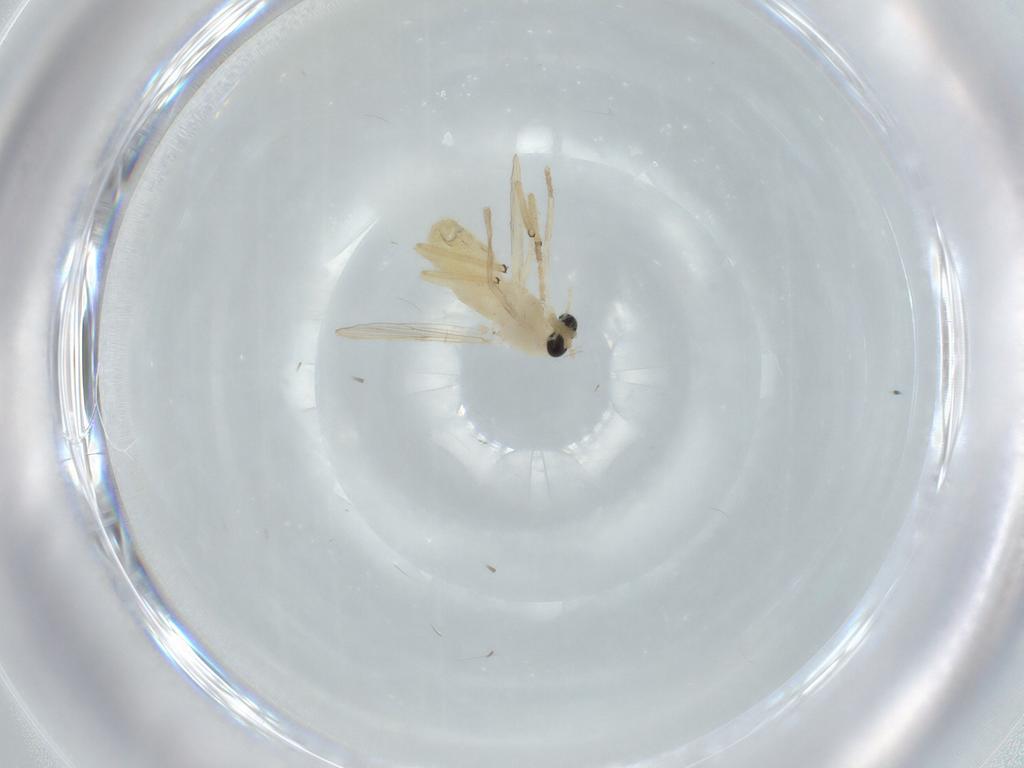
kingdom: Animalia
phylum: Arthropoda
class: Insecta
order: Diptera
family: Chironomidae
